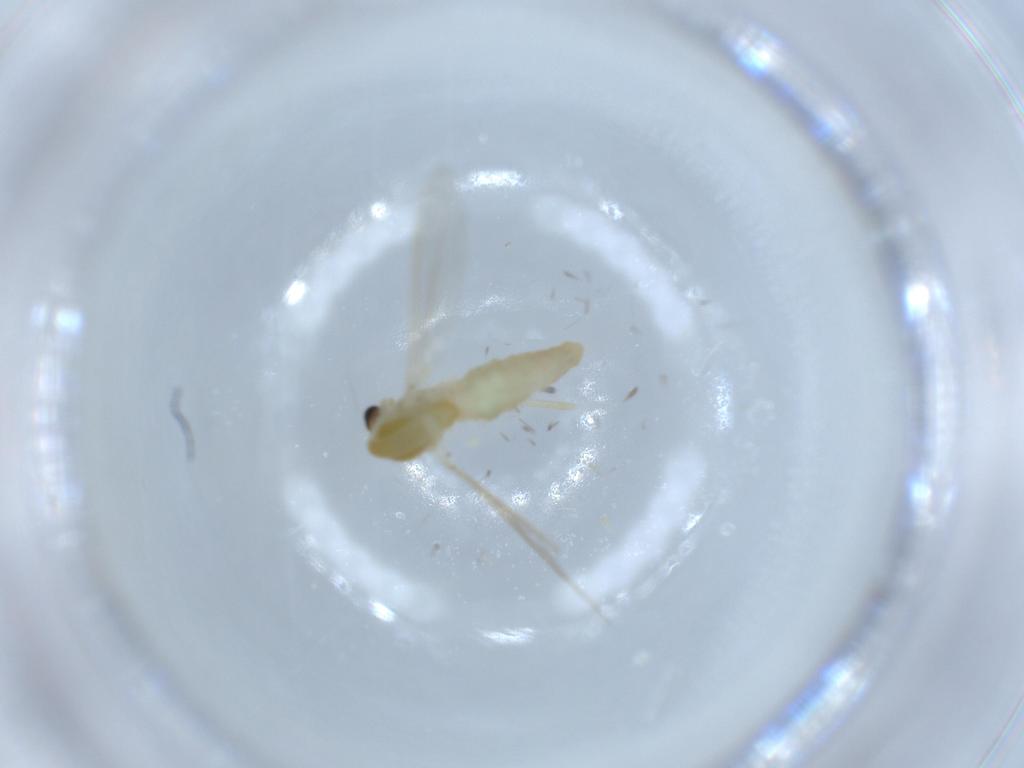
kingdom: Animalia
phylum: Arthropoda
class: Insecta
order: Diptera
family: Chironomidae
